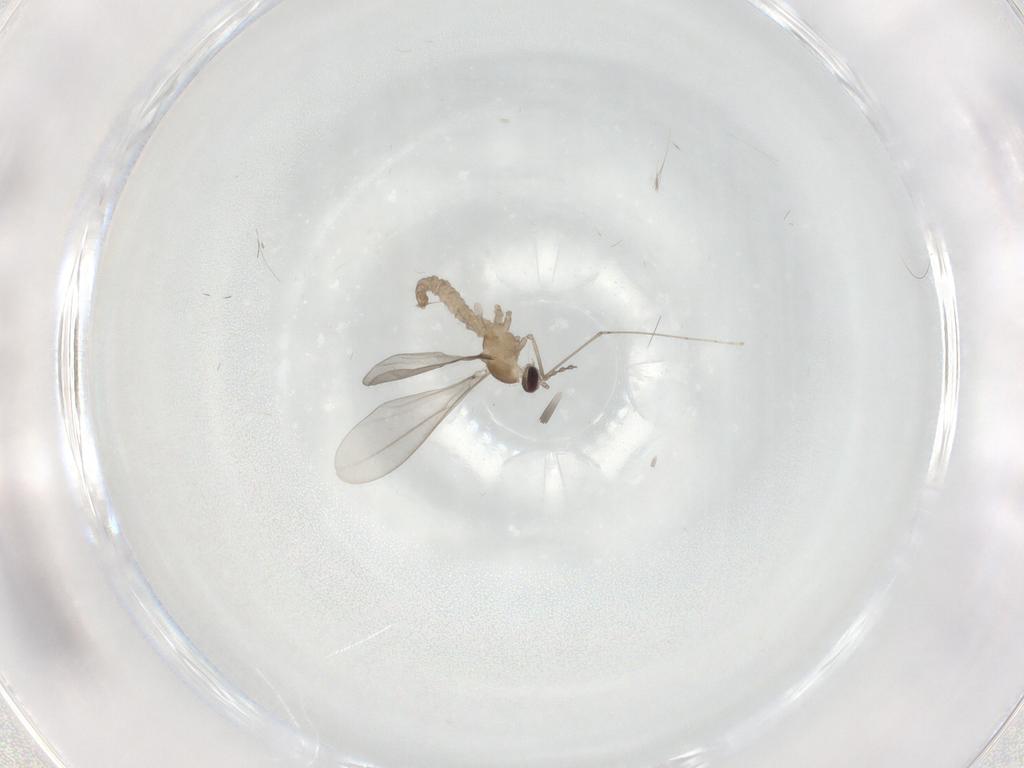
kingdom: Animalia
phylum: Arthropoda
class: Insecta
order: Diptera
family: Cecidomyiidae
